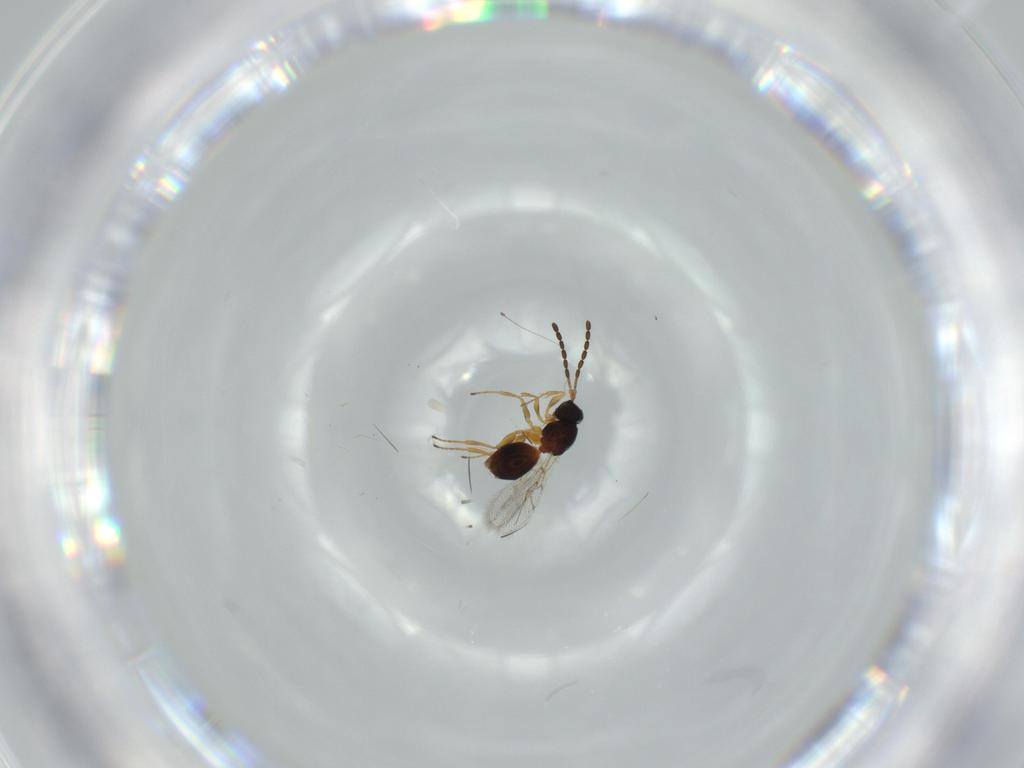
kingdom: Animalia
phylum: Arthropoda
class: Insecta
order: Hymenoptera
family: Figitidae
